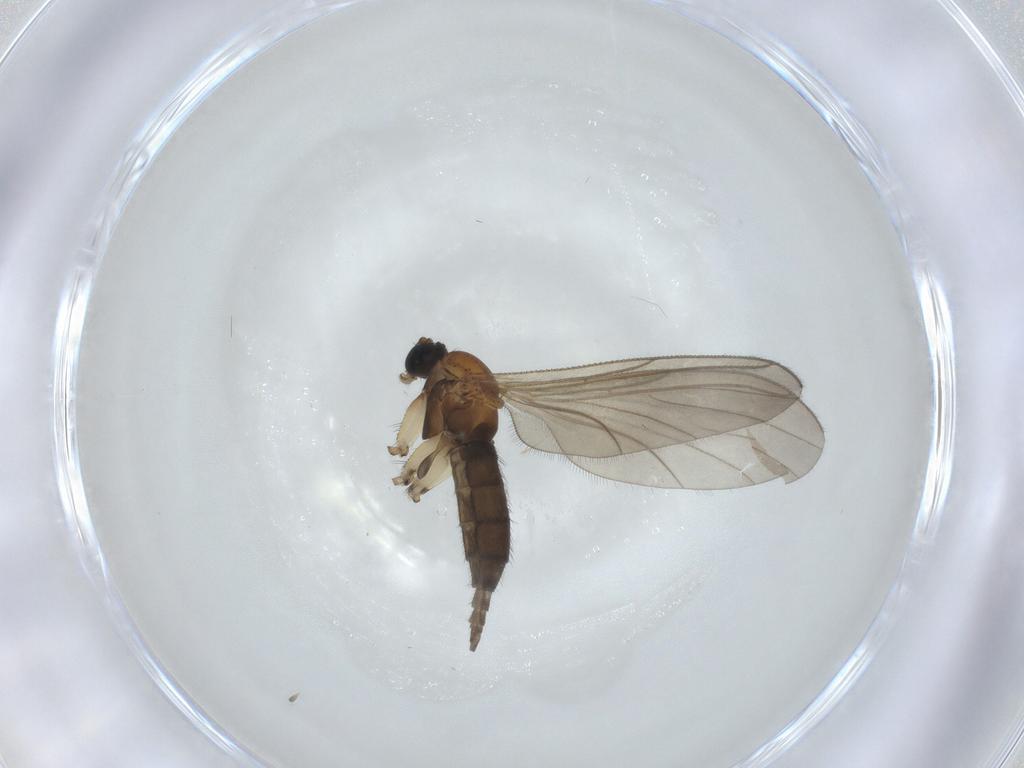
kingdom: Animalia
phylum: Arthropoda
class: Insecta
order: Diptera
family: Sciaridae
